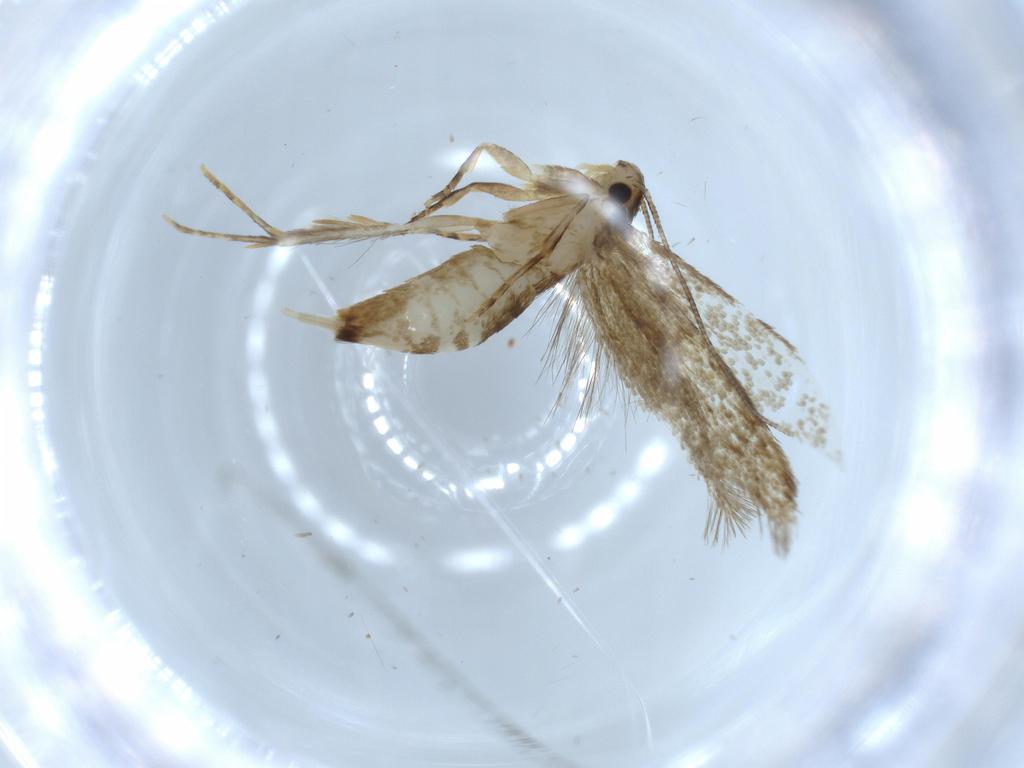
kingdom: Animalia
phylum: Arthropoda
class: Insecta
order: Lepidoptera
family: Tineidae
